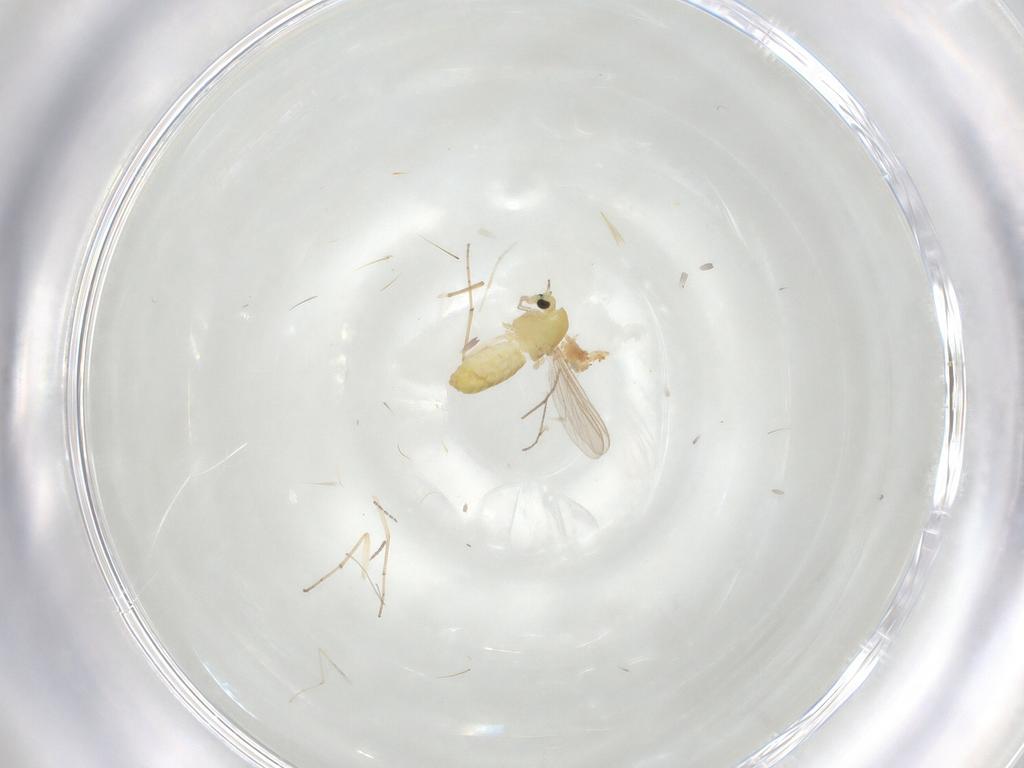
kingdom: Animalia
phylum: Arthropoda
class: Insecta
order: Diptera
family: Chironomidae
